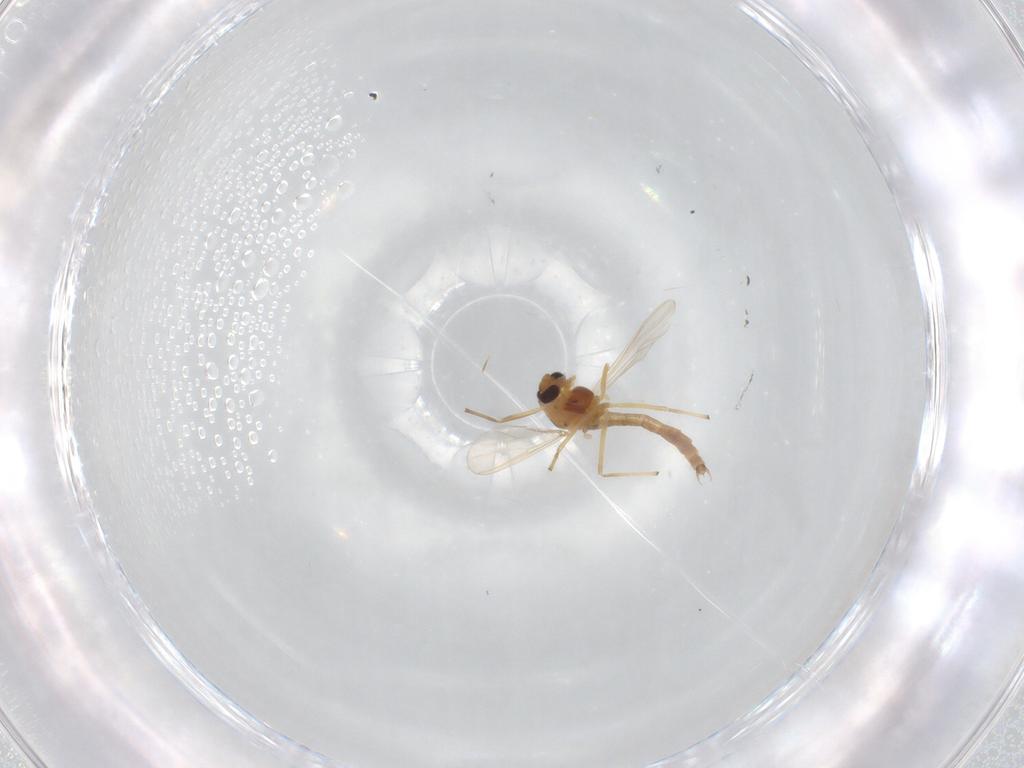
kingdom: Animalia
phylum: Arthropoda
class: Insecta
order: Diptera
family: Chironomidae
